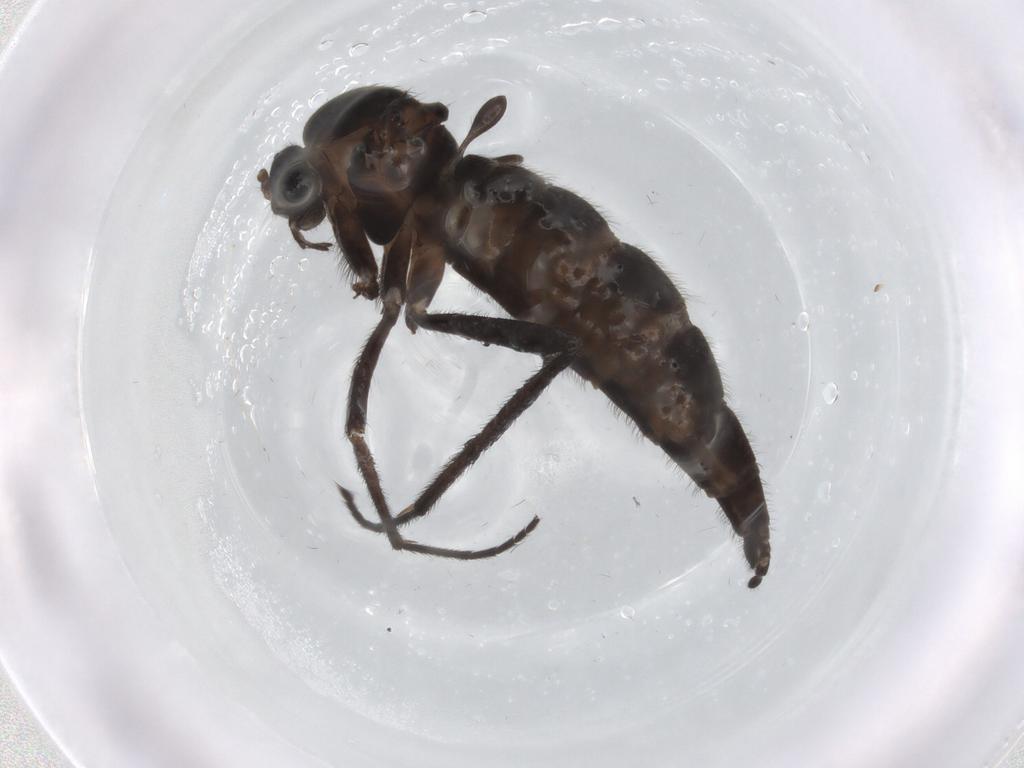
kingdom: Animalia
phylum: Arthropoda
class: Insecta
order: Diptera
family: Sciaridae
